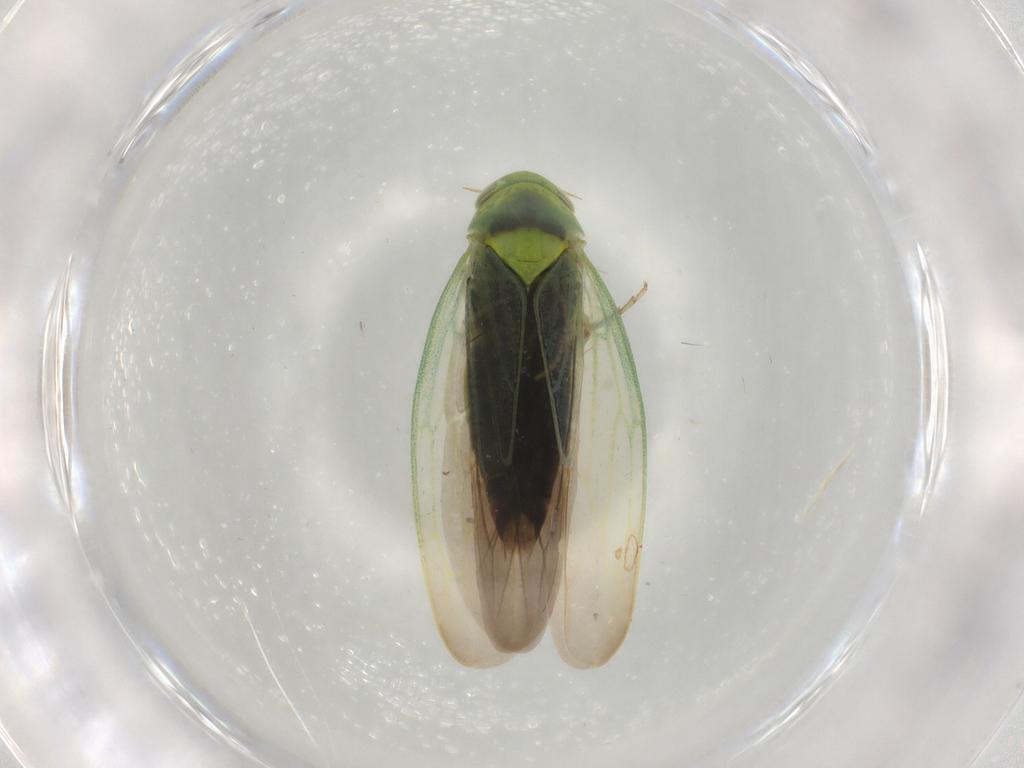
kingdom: Animalia
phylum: Arthropoda
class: Insecta
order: Hemiptera
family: Cicadellidae
